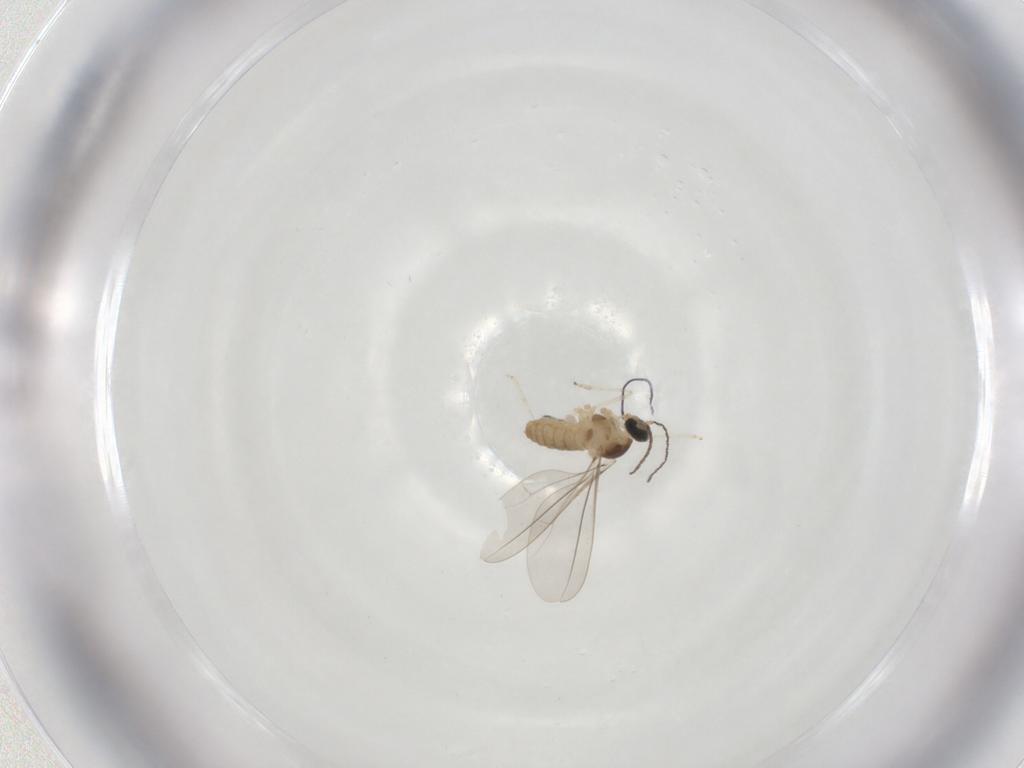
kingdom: Animalia
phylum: Arthropoda
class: Insecta
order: Diptera
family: Cecidomyiidae
